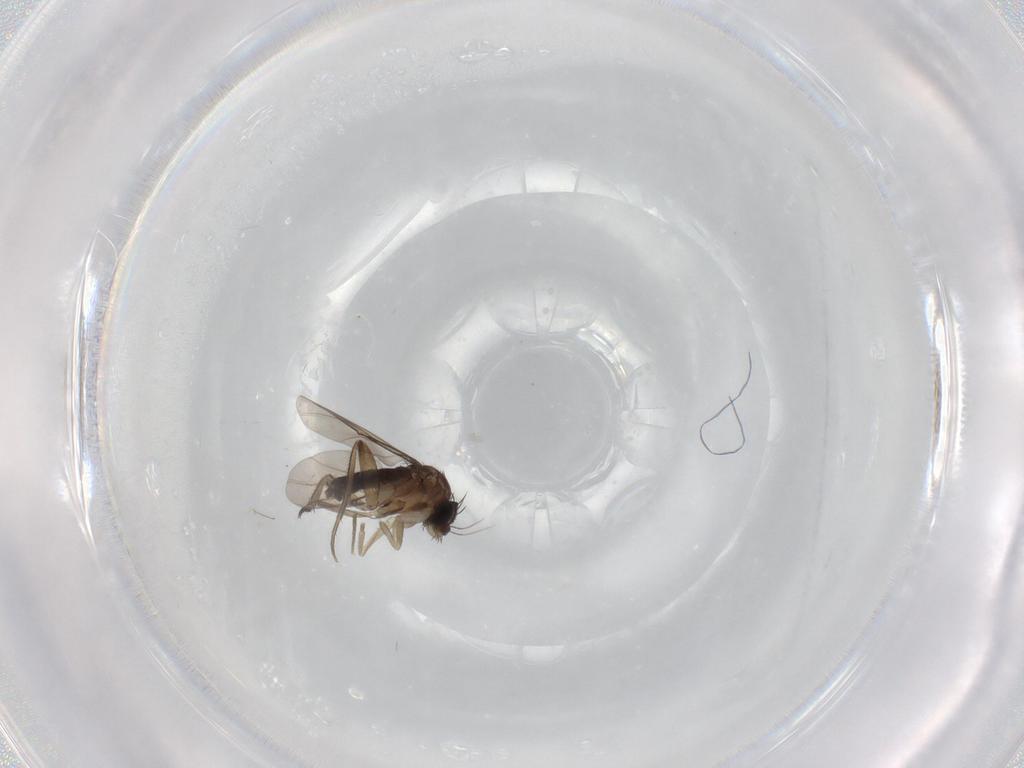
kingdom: Animalia
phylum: Arthropoda
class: Insecta
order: Diptera
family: Phoridae
